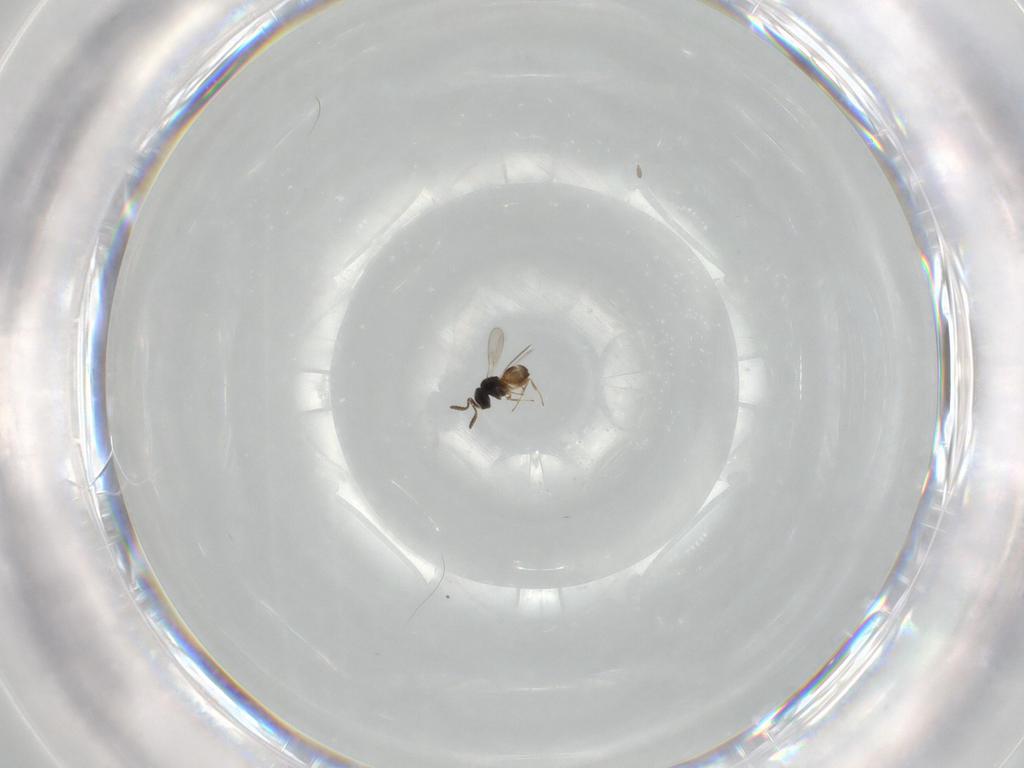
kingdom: Animalia
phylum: Arthropoda
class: Insecta
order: Hymenoptera
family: Scelionidae
